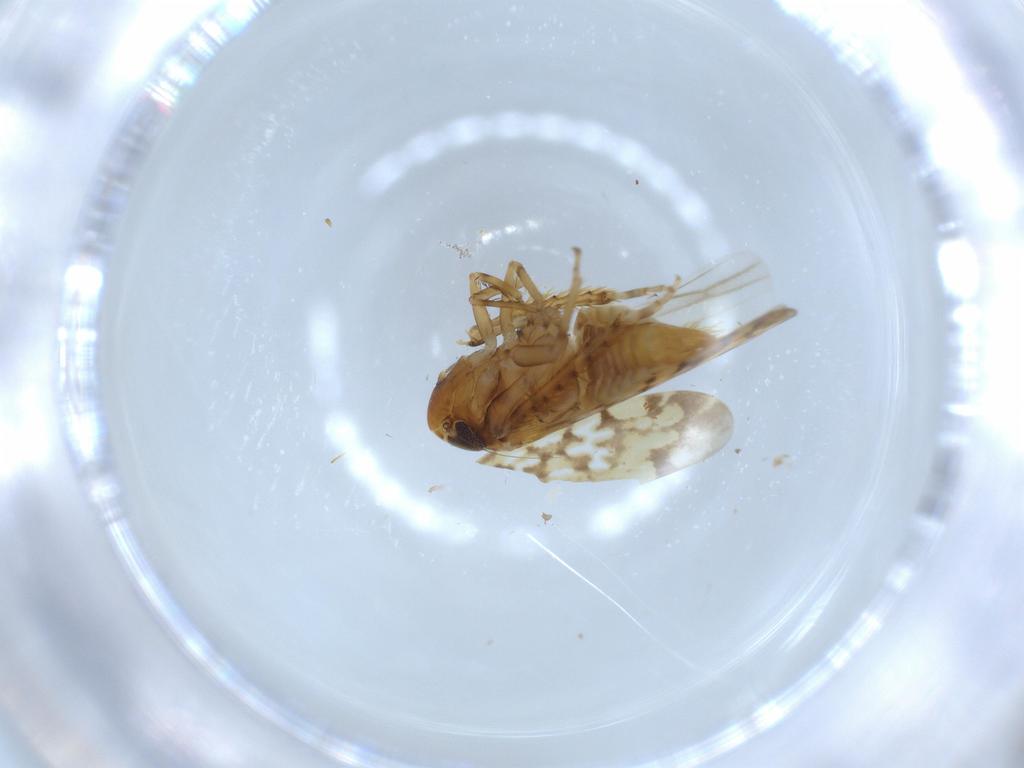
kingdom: Animalia
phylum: Arthropoda
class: Insecta
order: Hemiptera
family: Cicadellidae
